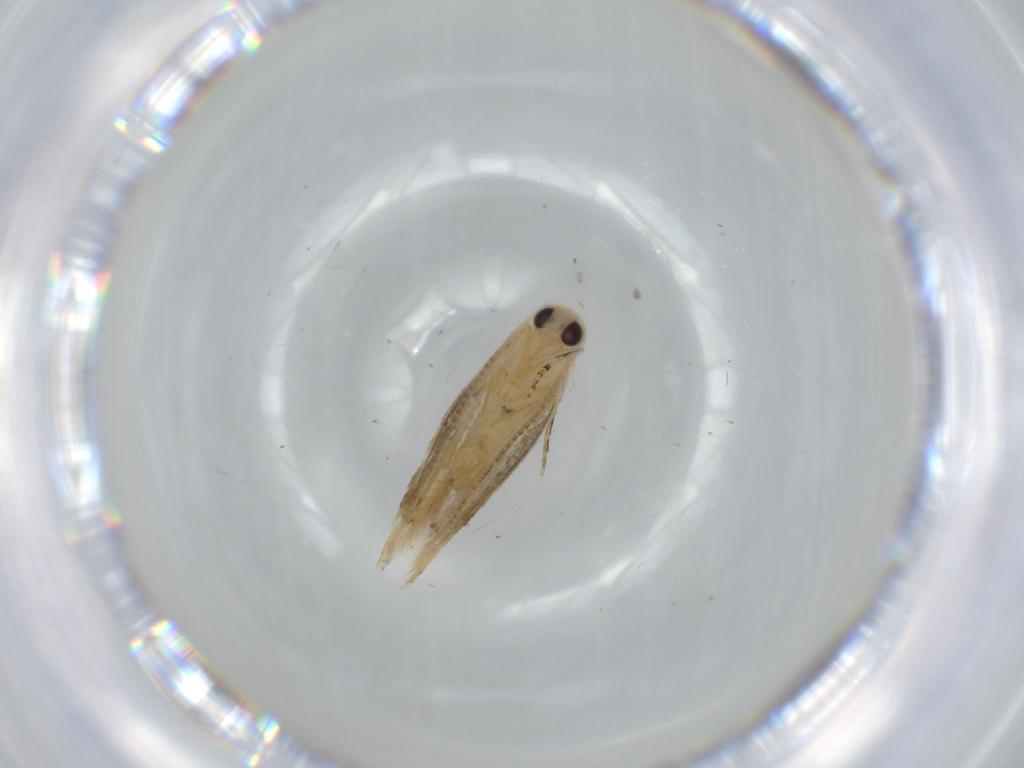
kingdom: Animalia
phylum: Arthropoda
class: Insecta
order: Lepidoptera
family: Bucculatricidae
